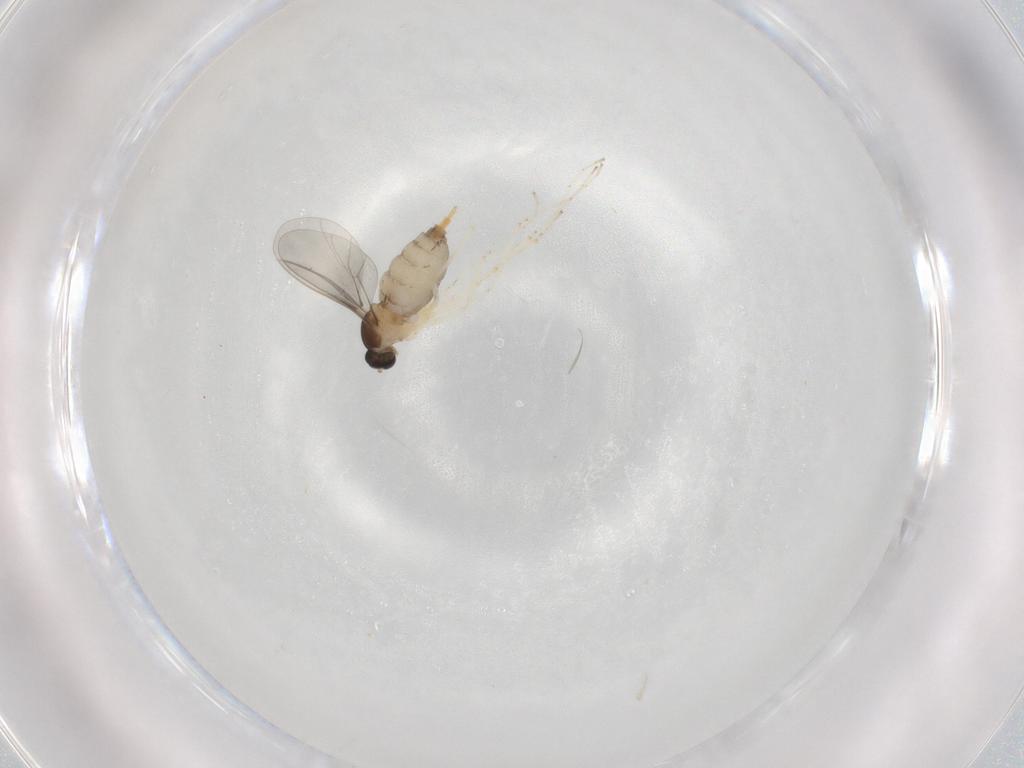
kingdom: Animalia
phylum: Arthropoda
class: Insecta
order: Diptera
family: Cecidomyiidae
